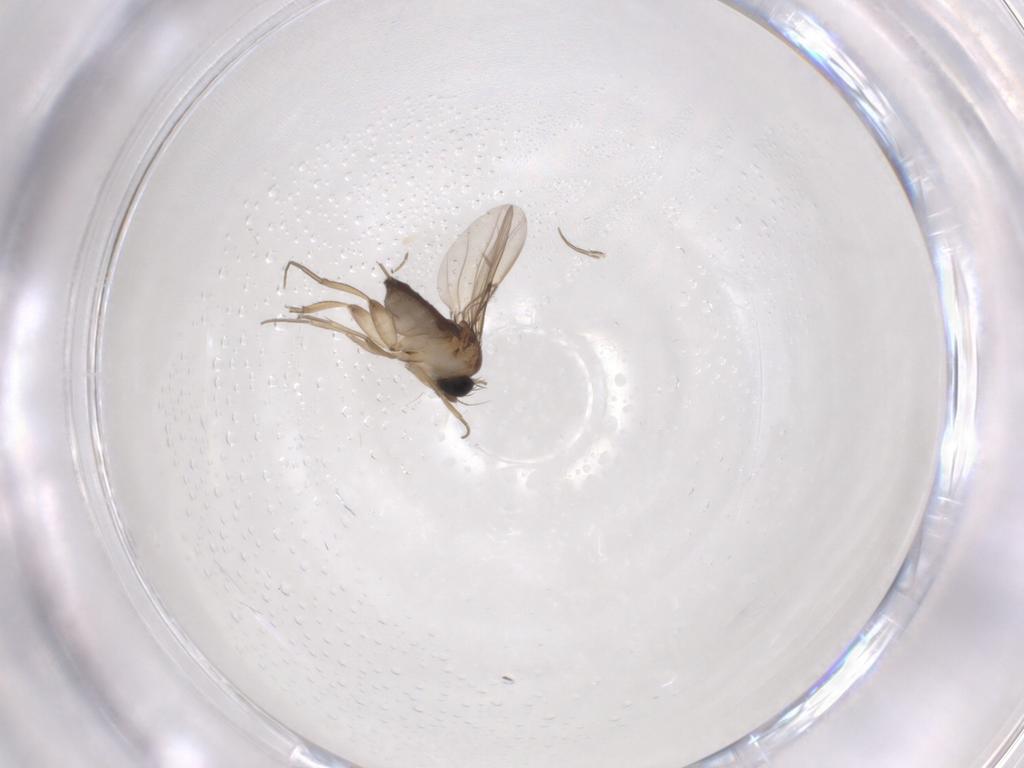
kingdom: Animalia
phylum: Arthropoda
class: Insecta
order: Diptera
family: Phoridae
